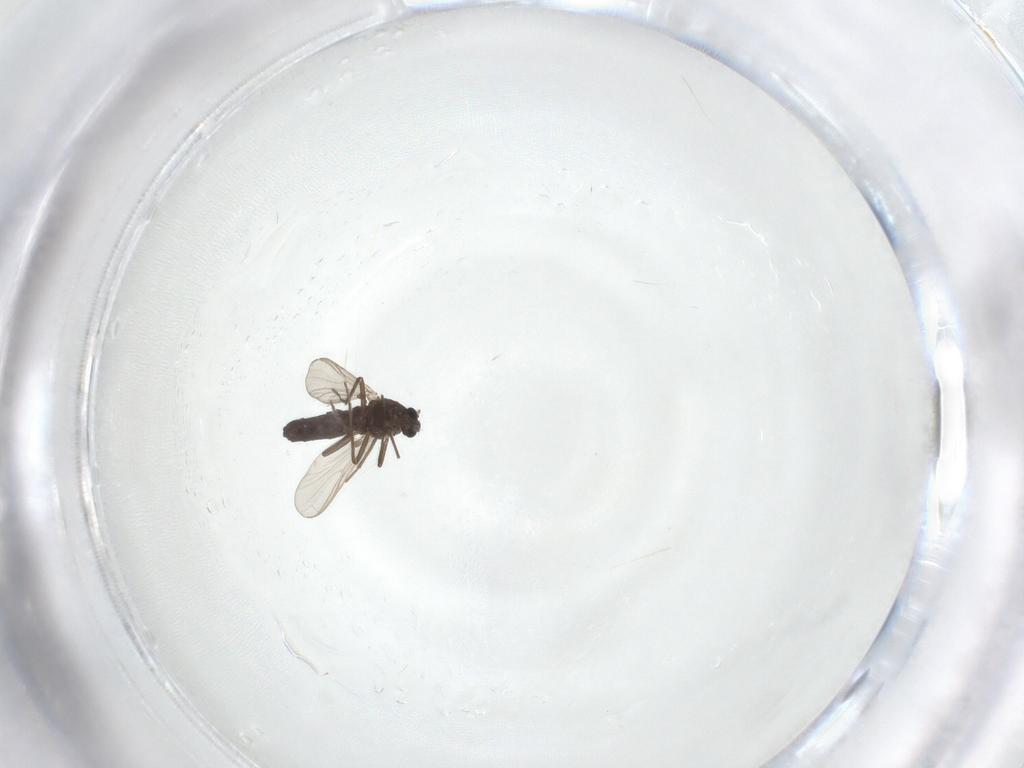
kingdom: Animalia
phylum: Arthropoda
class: Insecta
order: Diptera
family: Chironomidae
